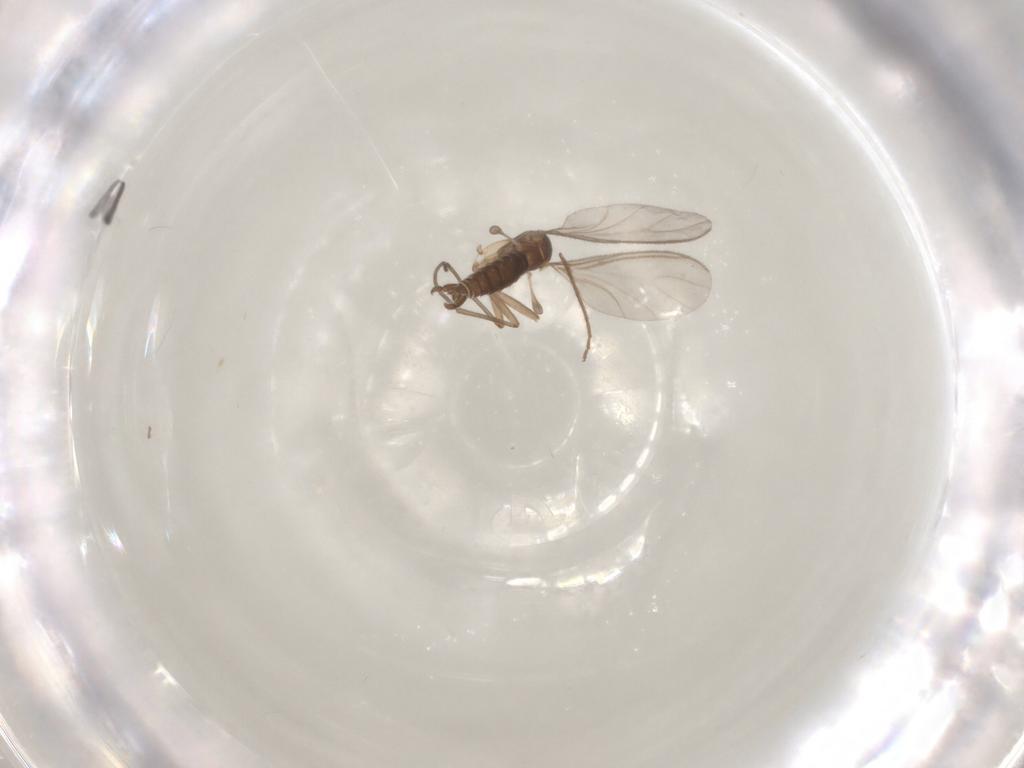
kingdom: Animalia
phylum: Arthropoda
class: Insecta
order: Diptera
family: Sciaridae
